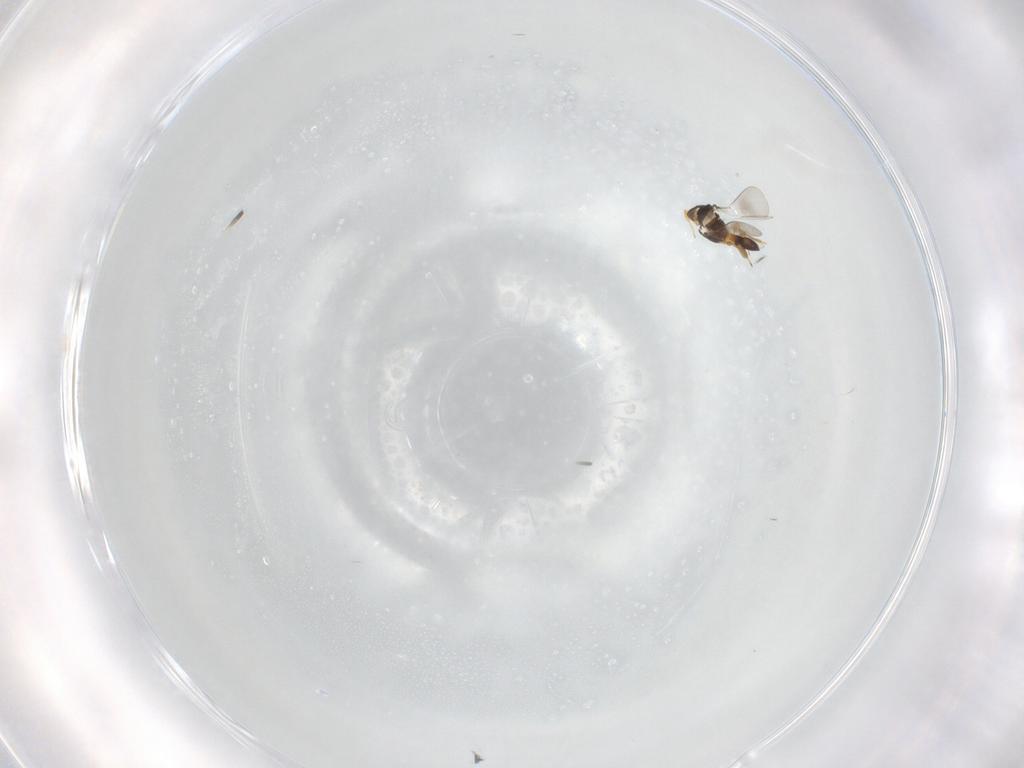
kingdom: Animalia
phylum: Arthropoda
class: Insecta
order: Hymenoptera
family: Platygastridae
